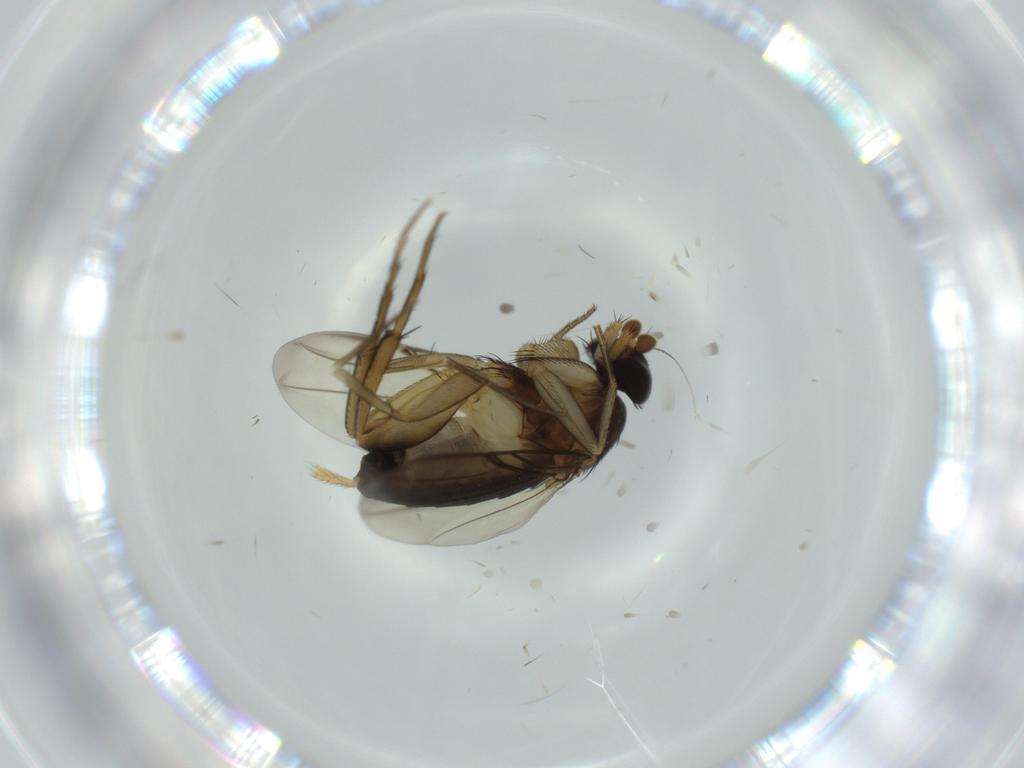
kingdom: Animalia
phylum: Arthropoda
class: Insecta
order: Diptera
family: Phoridae
